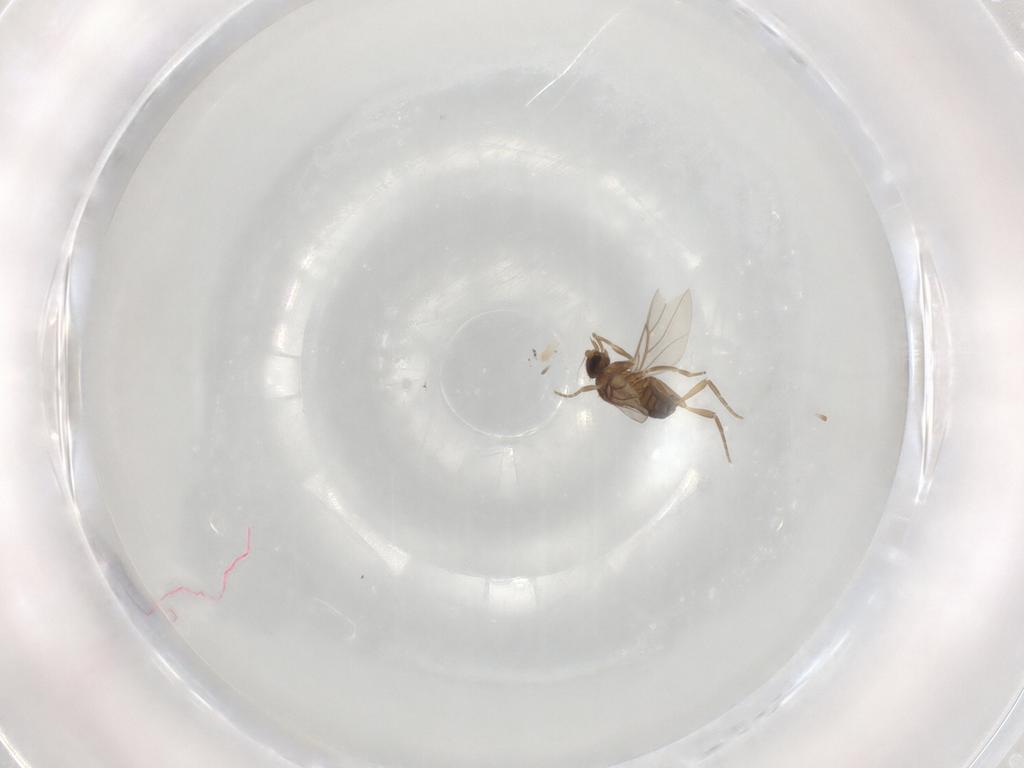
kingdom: Animalia
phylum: Arthropoda
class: Insecta
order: Diptera
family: Phoridae
